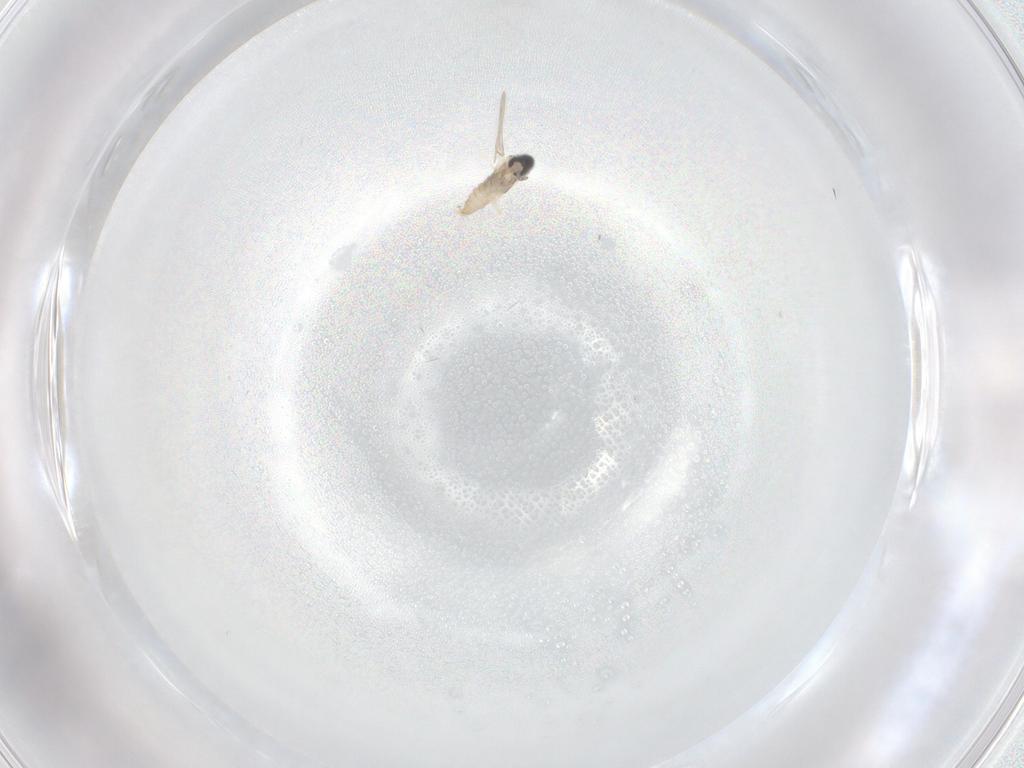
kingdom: Animalia
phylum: Arthropoda
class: Insecta
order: Diptera
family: Cecidomyiidae
